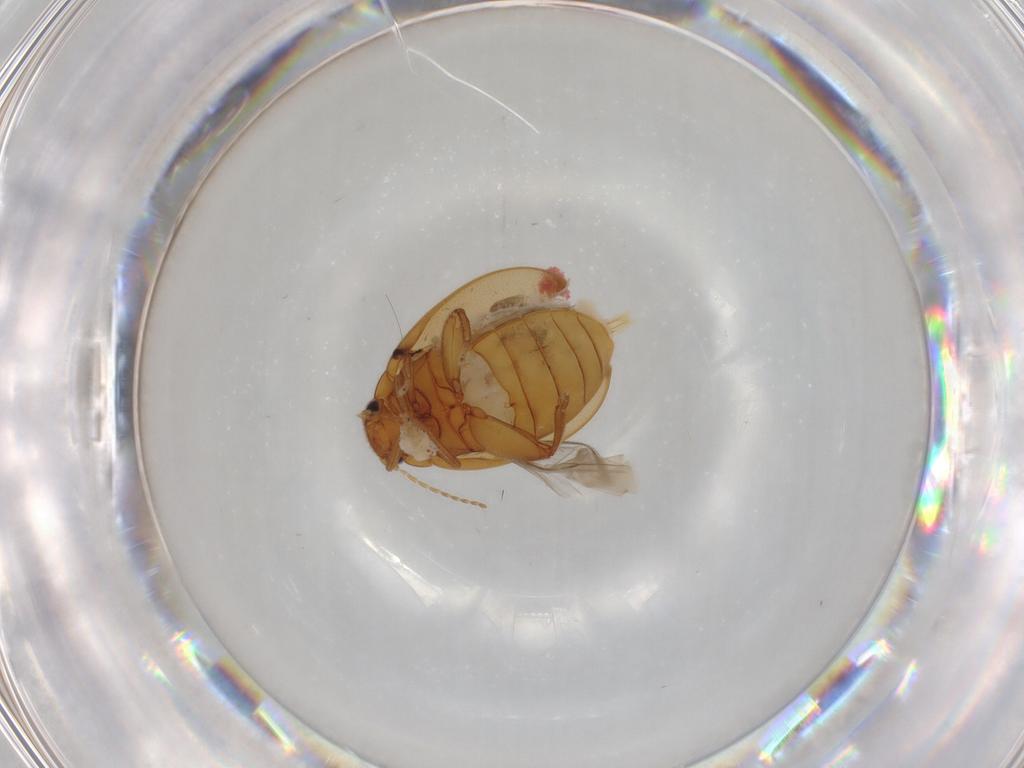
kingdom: Animalia
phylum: Arthropoda
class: Insecta
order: Coleoptera
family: Scirtidae
